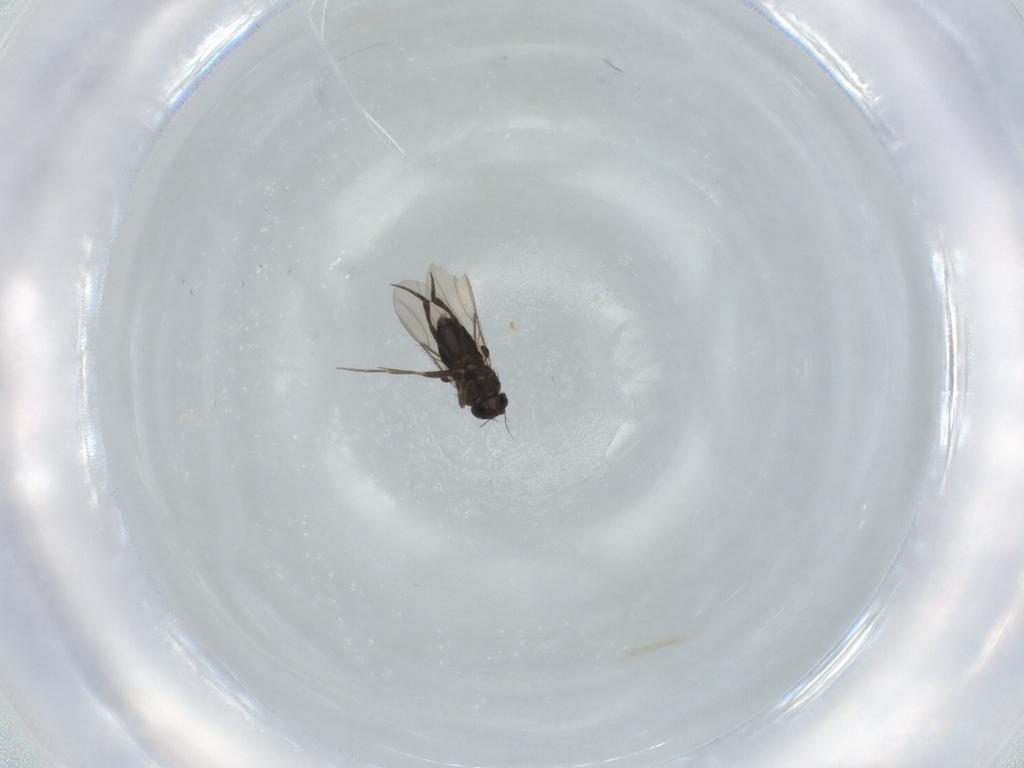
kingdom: Animalia
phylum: Arthropoda
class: Insecta
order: Diptera
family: Phoridae
